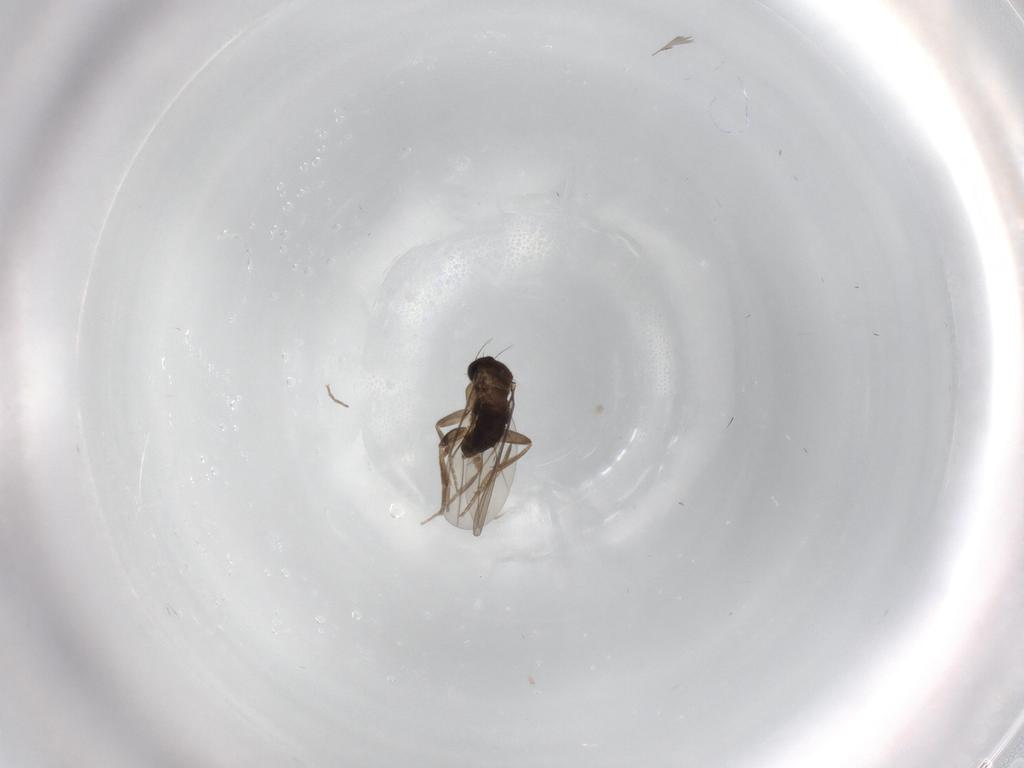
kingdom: Animalia
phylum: Arthropoda
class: Insecta
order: Diptera
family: Phoridae
